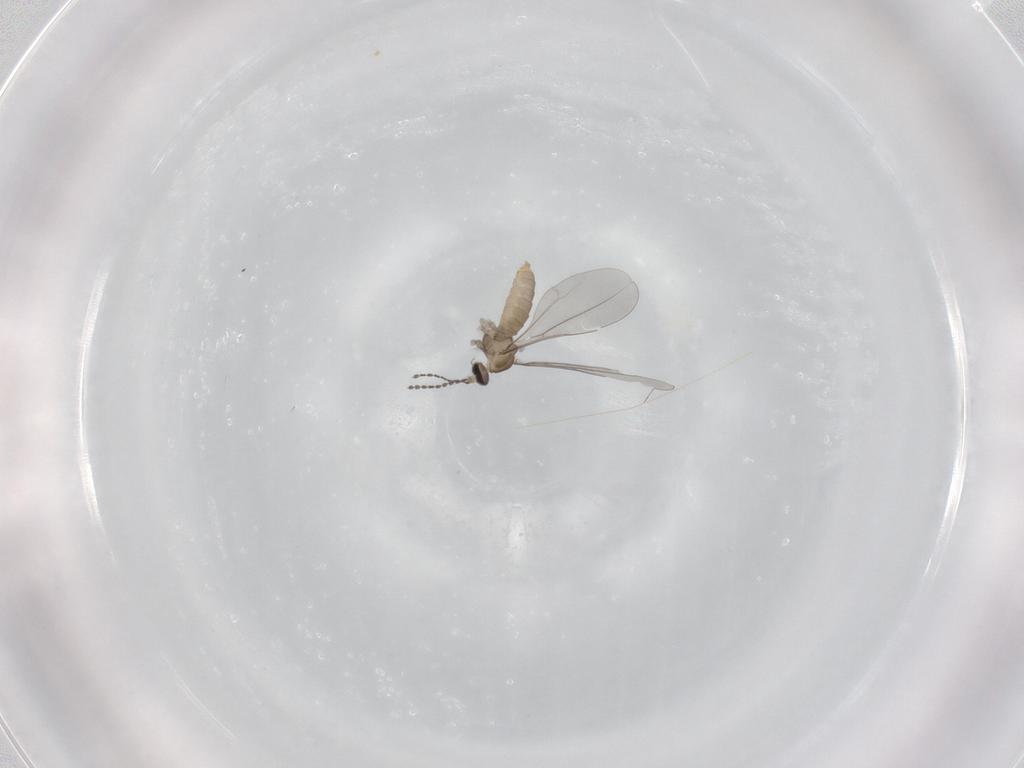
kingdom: Animalia
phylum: Arthropoda
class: Insecta
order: Diptera
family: Cecidomyiidae
